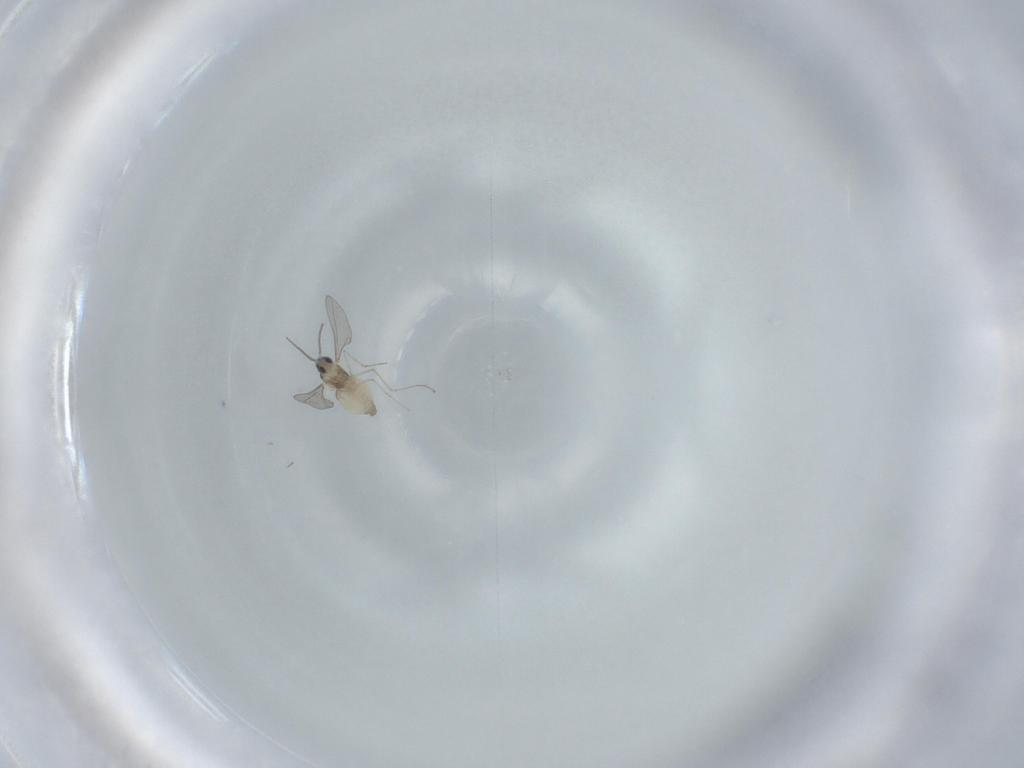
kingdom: Animalia
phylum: Arthropoda
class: Insecta
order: Diptera
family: Cecidomyiidae
